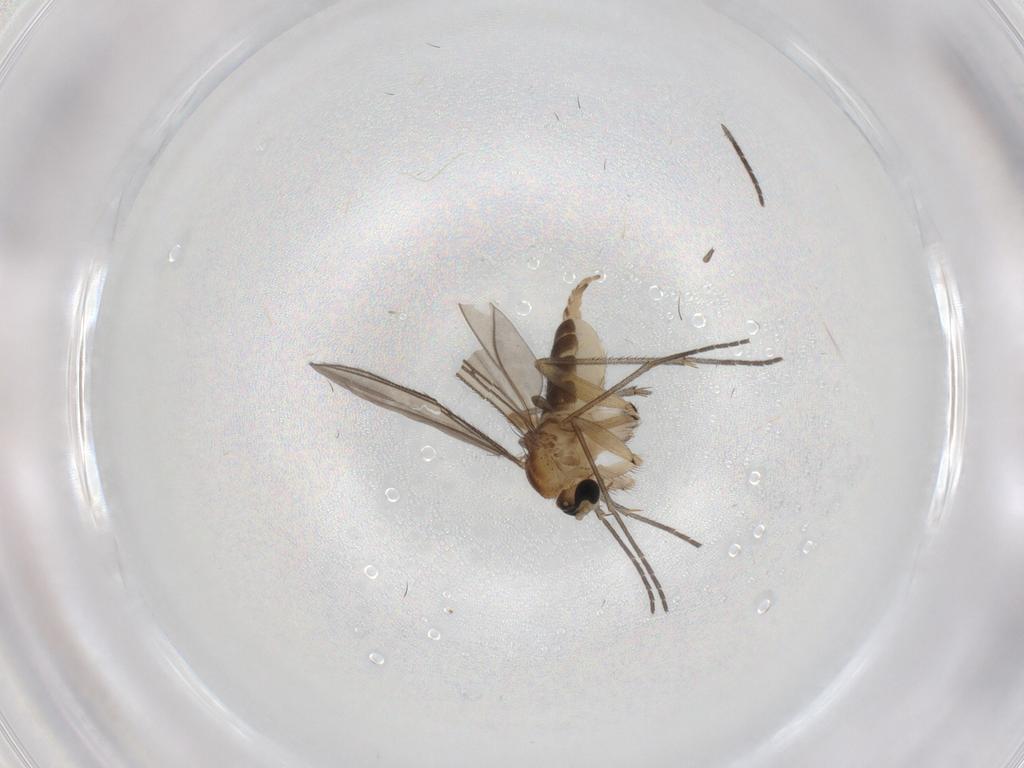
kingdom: Animalia
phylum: Arthropoda
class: Insecta
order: Diptera
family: Sciaridae
